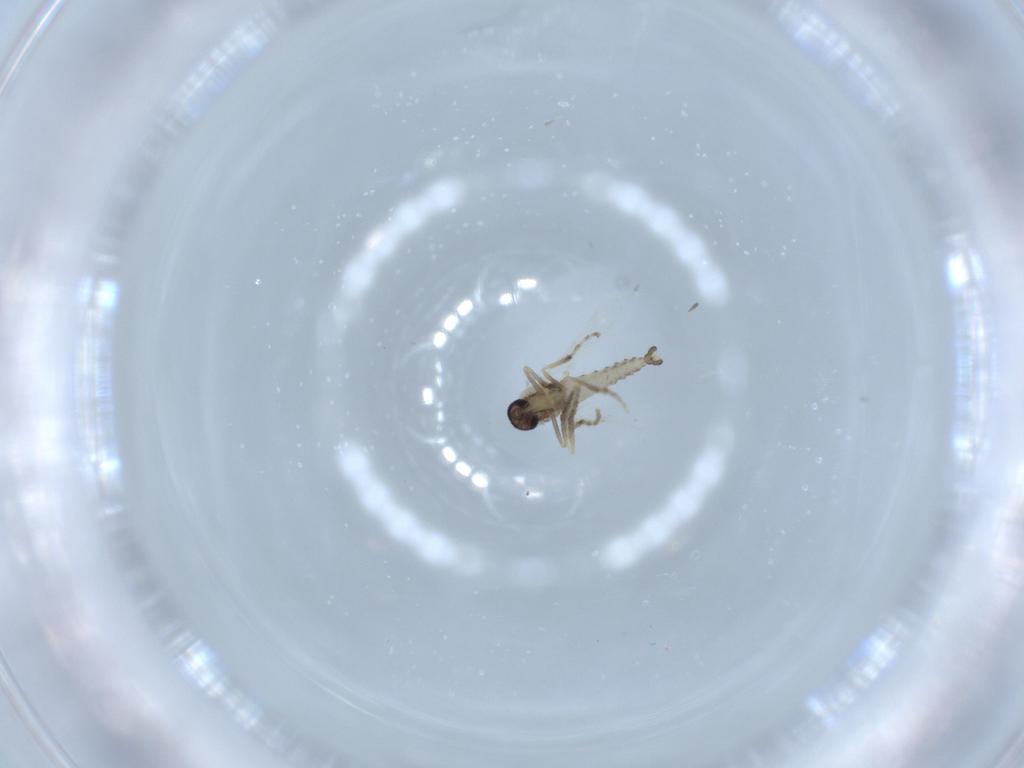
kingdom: Animalia
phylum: Arthropoda
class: Insecta
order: Diptera
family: Ceratopogonidae
